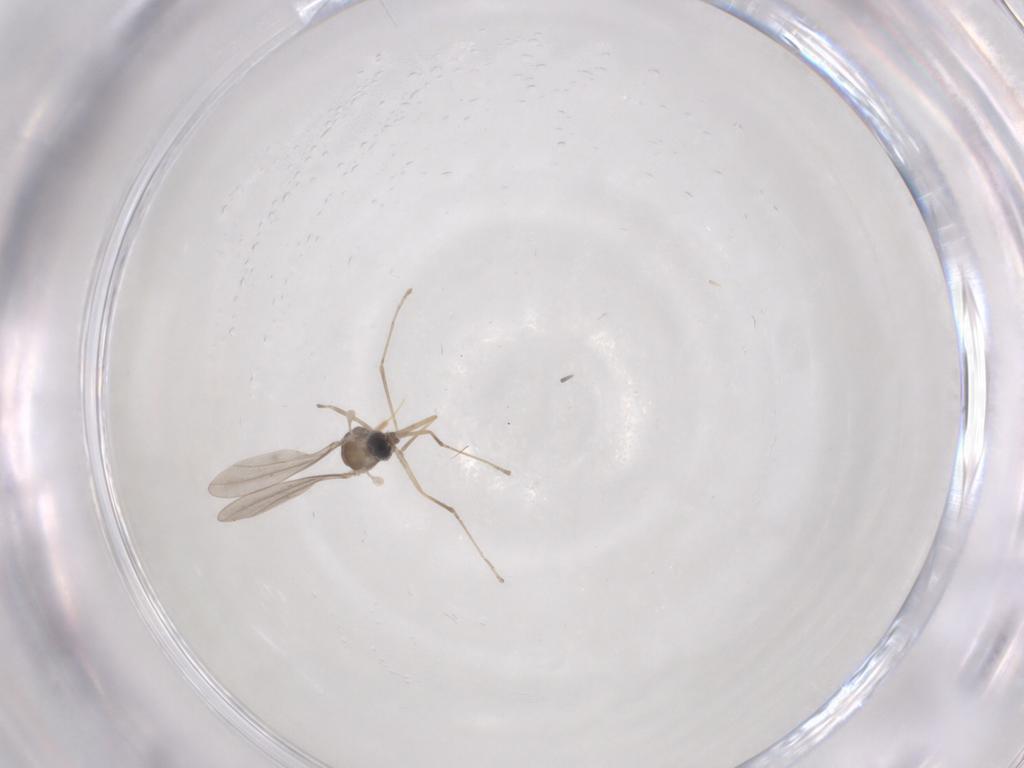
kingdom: Animalia
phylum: Arthropoda
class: Insecta
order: Diptera
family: Cecidomyiidae
